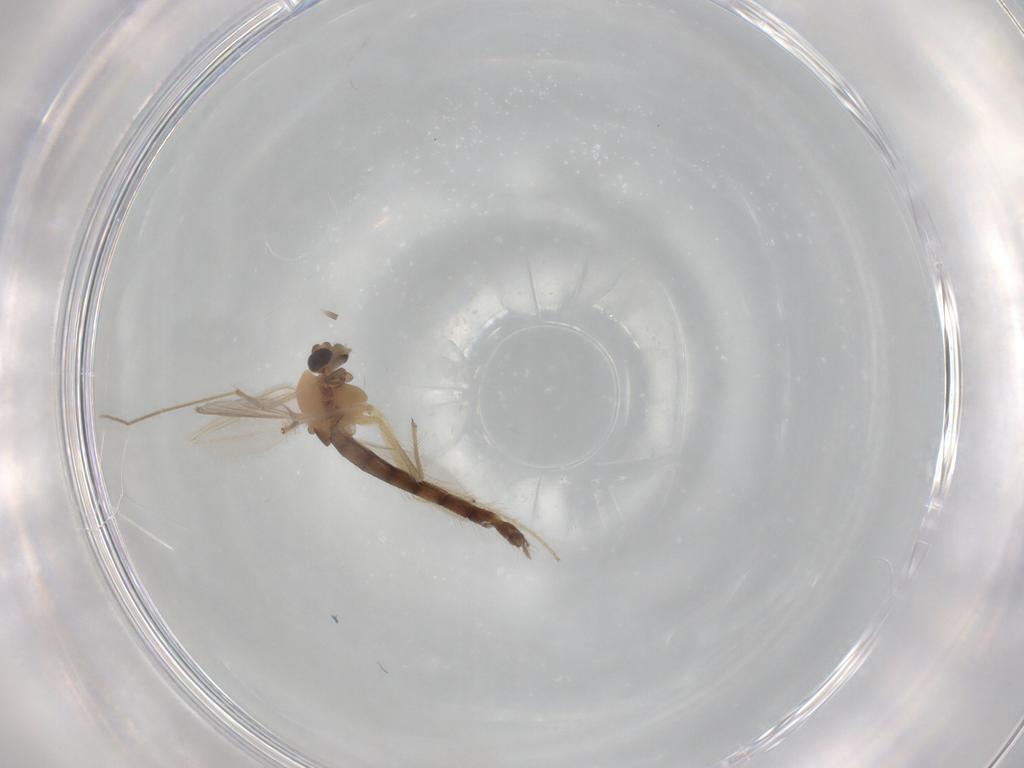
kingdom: Animalia
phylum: Arthropoda
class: Insecta
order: Diptera
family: Chironomidae
